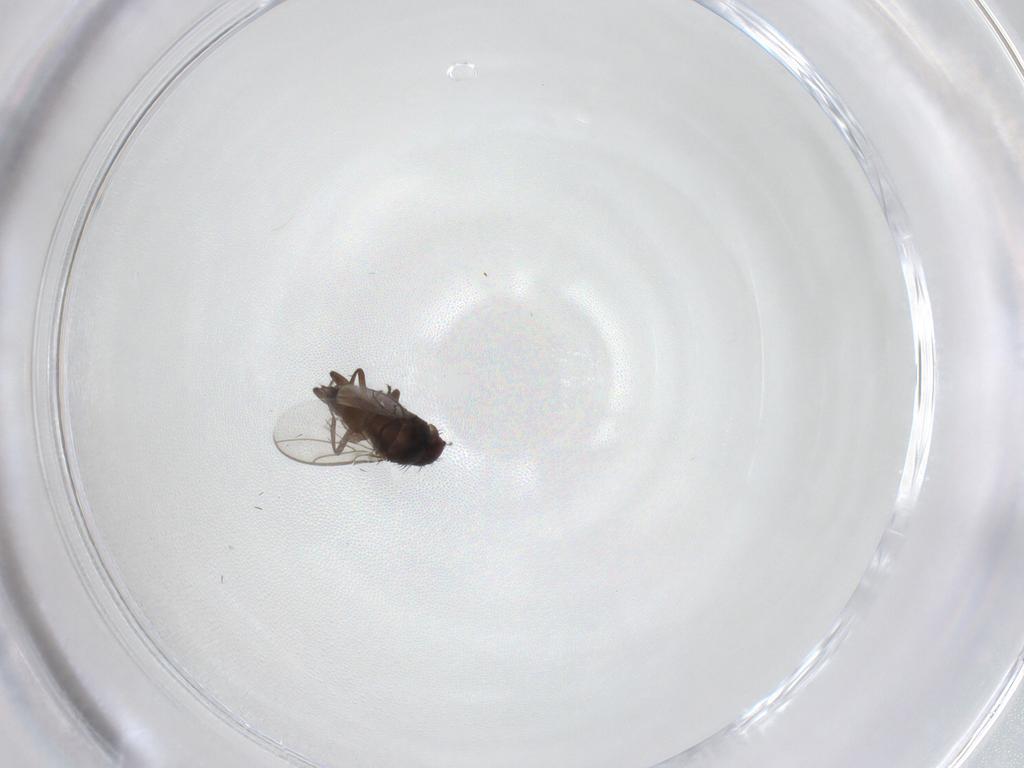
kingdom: Animalia
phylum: Arthropoda
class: Insecta
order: Diptera
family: Sphaeroceridae
